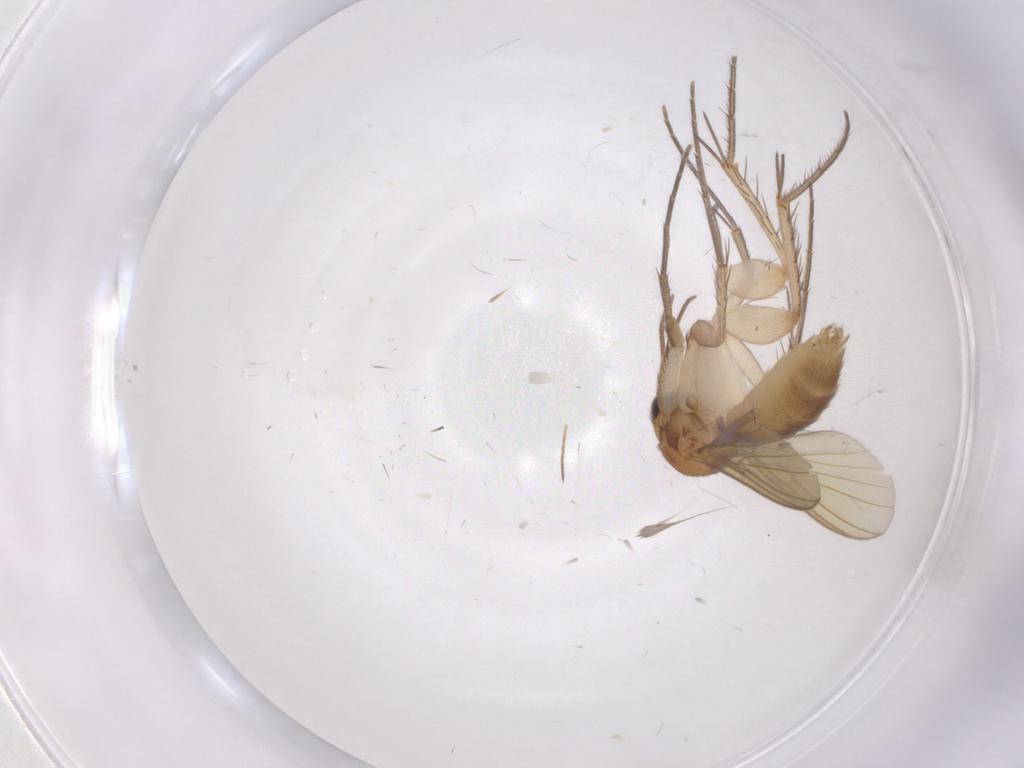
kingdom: Animalia
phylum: Arthropoda
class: Insecta
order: Diptera
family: Mycetophilidae
